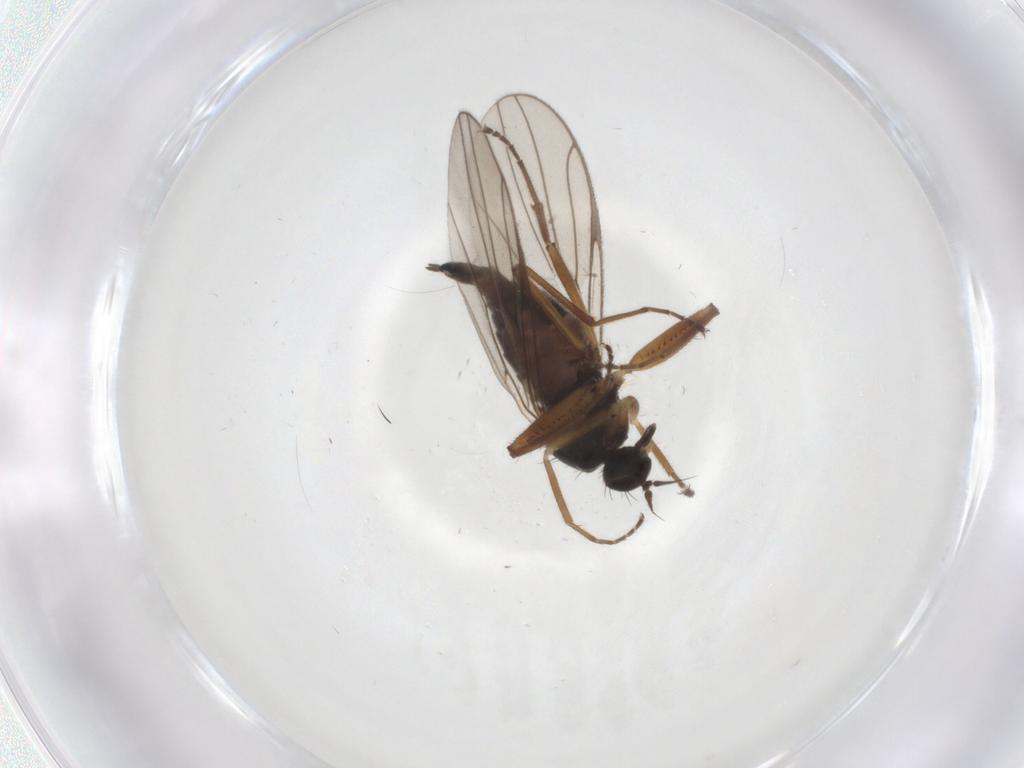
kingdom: Animalia
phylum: Arthropoda
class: Insecta
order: Diptera
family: Hybotidae
